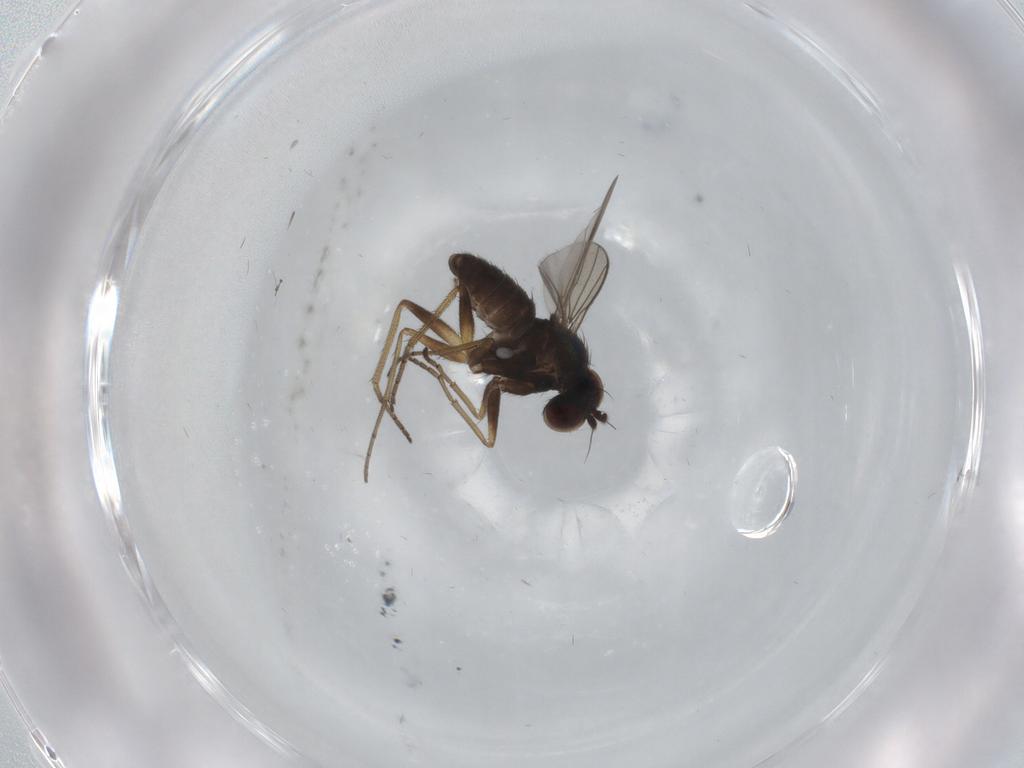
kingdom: Animalia
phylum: Arthropoda
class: Insecta
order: Diptera
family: Dolichopodidae
